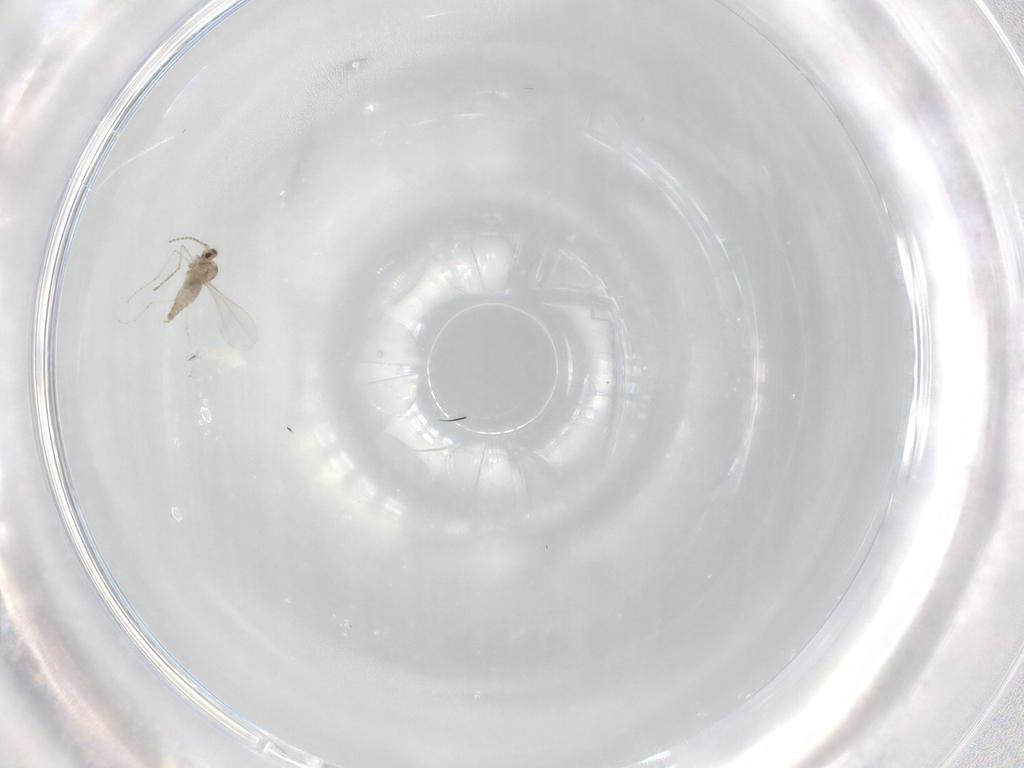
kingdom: Animalia
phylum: Arthropoda
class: Insecta
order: Diptera
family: Cecidomyiidae
